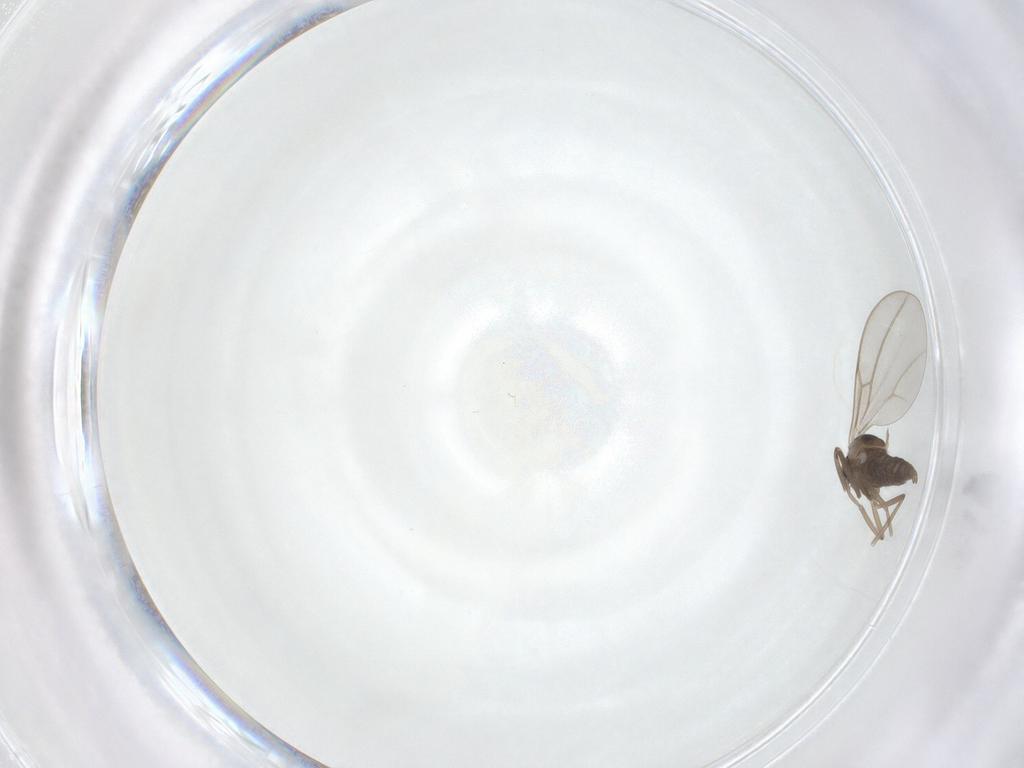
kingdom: Animalia
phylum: Arthropoda
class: Insecta
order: Diptera
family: Cecidomyiidae
